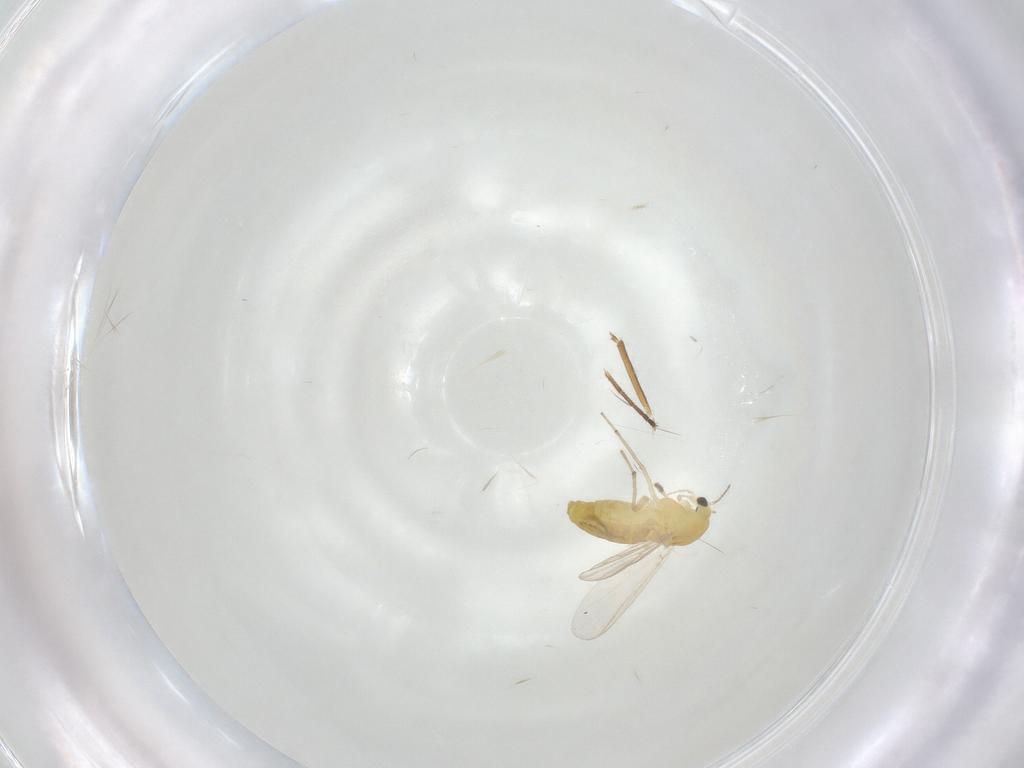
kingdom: Animalia
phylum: Arthropoda
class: Insecta
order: Diptera
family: Chironomidae
